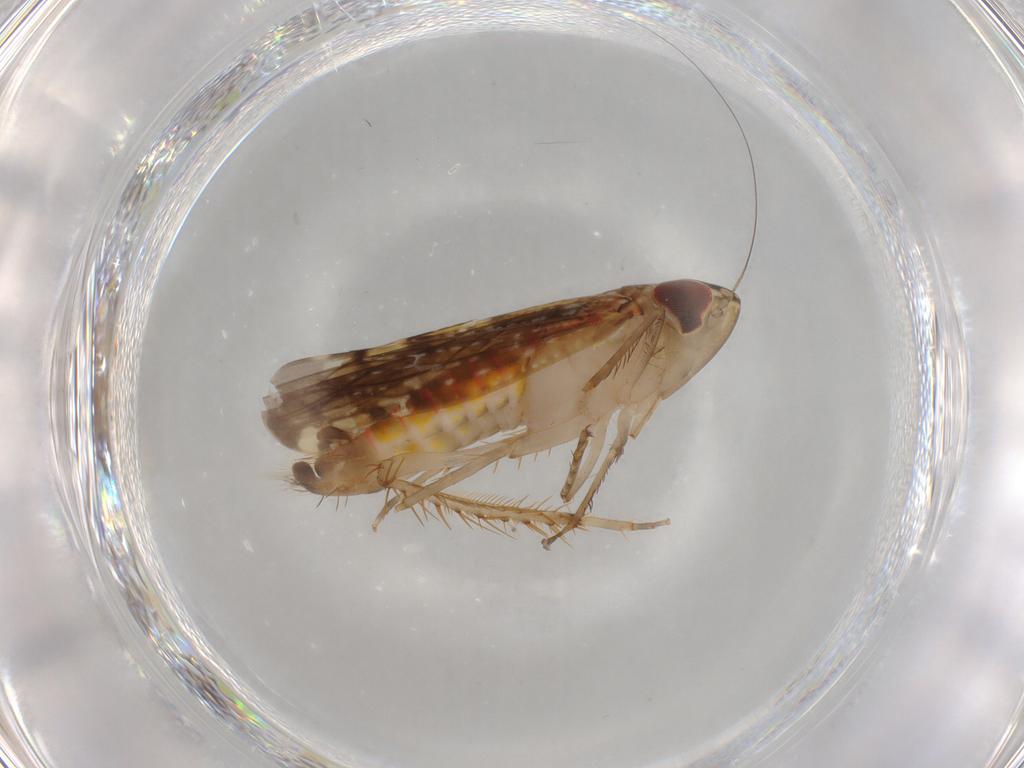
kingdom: Animalia
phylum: Arthropoda
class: Insecta
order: Hemiptera
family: Cicadellidae
